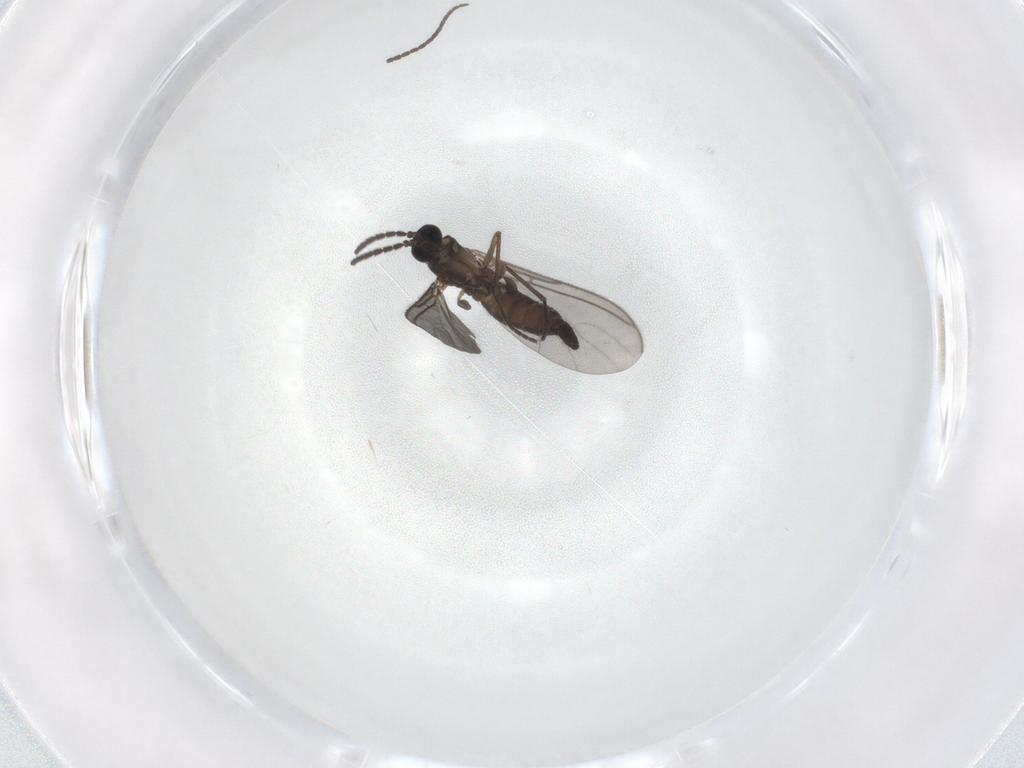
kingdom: Animalia
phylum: Arthropoda
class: Insecta
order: Diptera
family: Sciaridae
